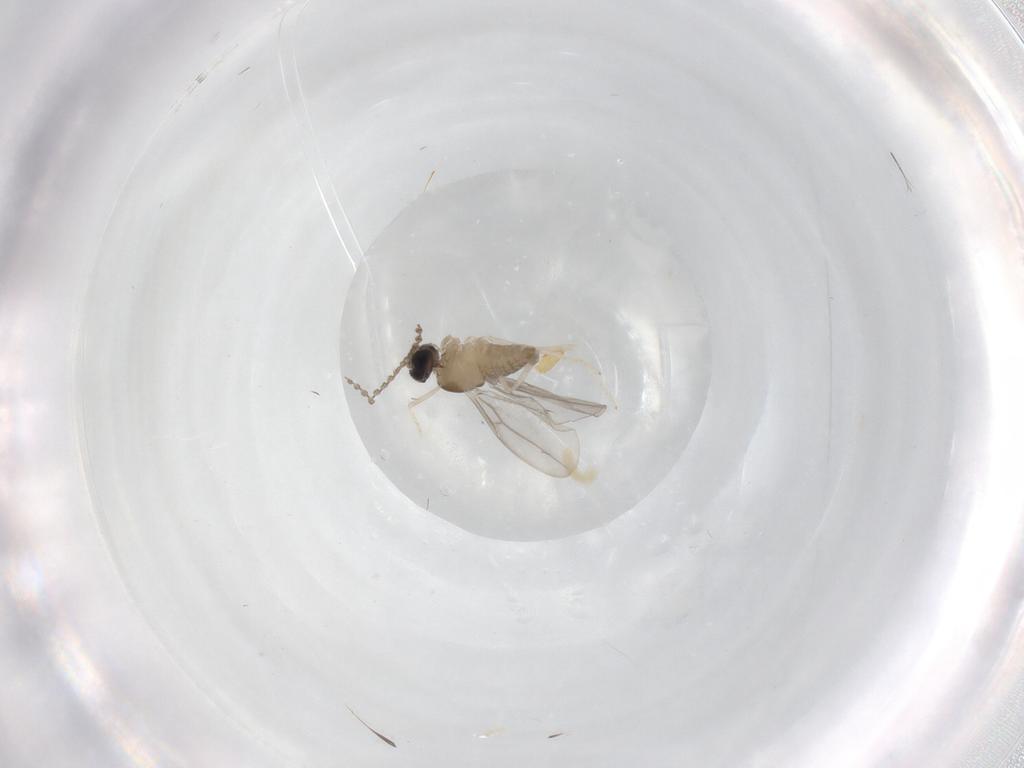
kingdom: Animalia
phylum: Arthropoda
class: Insecta
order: Diptera
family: Cecidomyiidae
